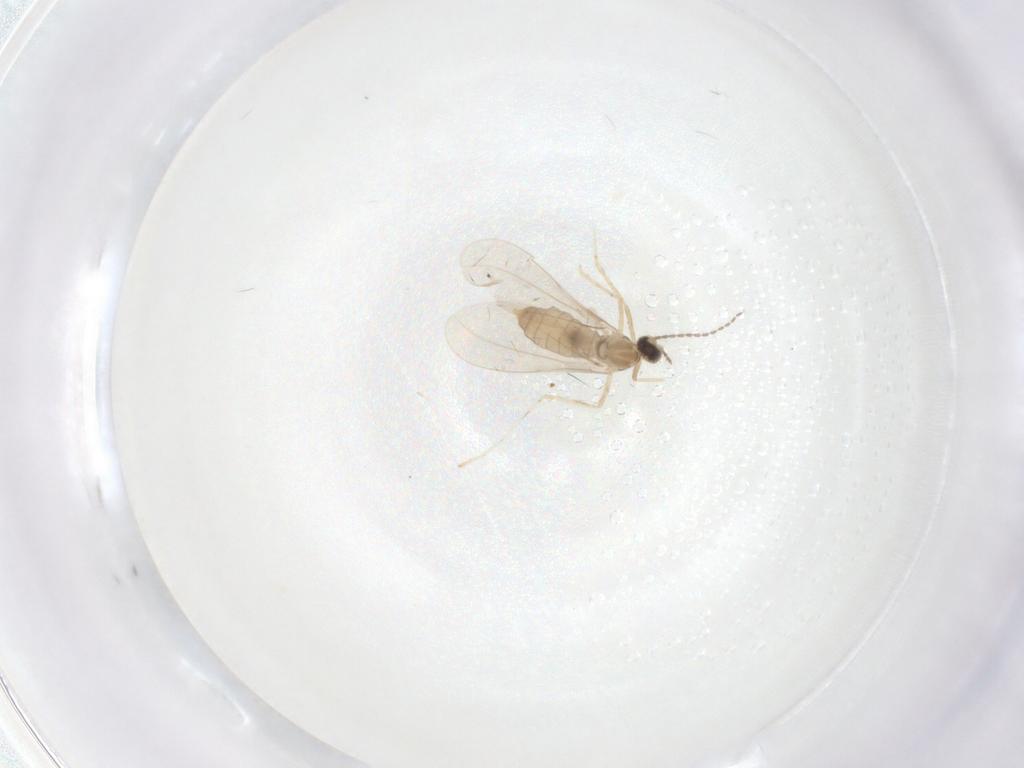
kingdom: Animalia
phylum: Arthropoda
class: Insecta
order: Diptera
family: Cecidomyiidae
